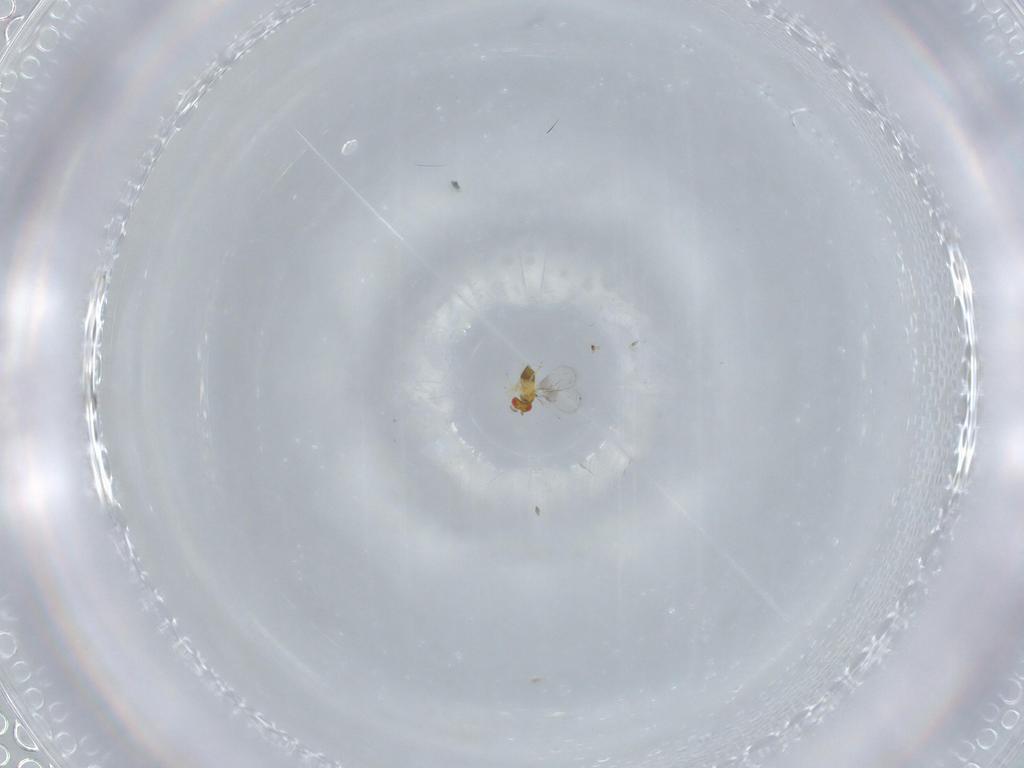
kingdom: Animalia
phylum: Arthropoda
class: Insecta
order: Hymenoptera
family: Trichogrammatidae
